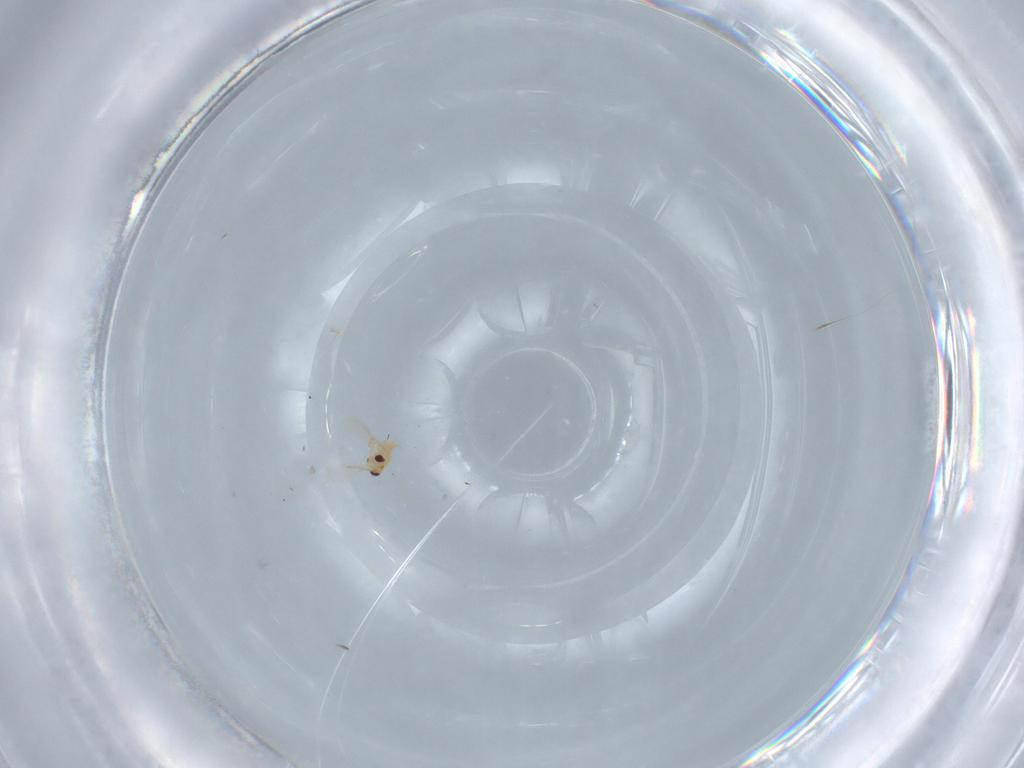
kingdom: Animalia
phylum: Arthropoda
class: Insecta
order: Hymenoptera
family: Aphelinidae
